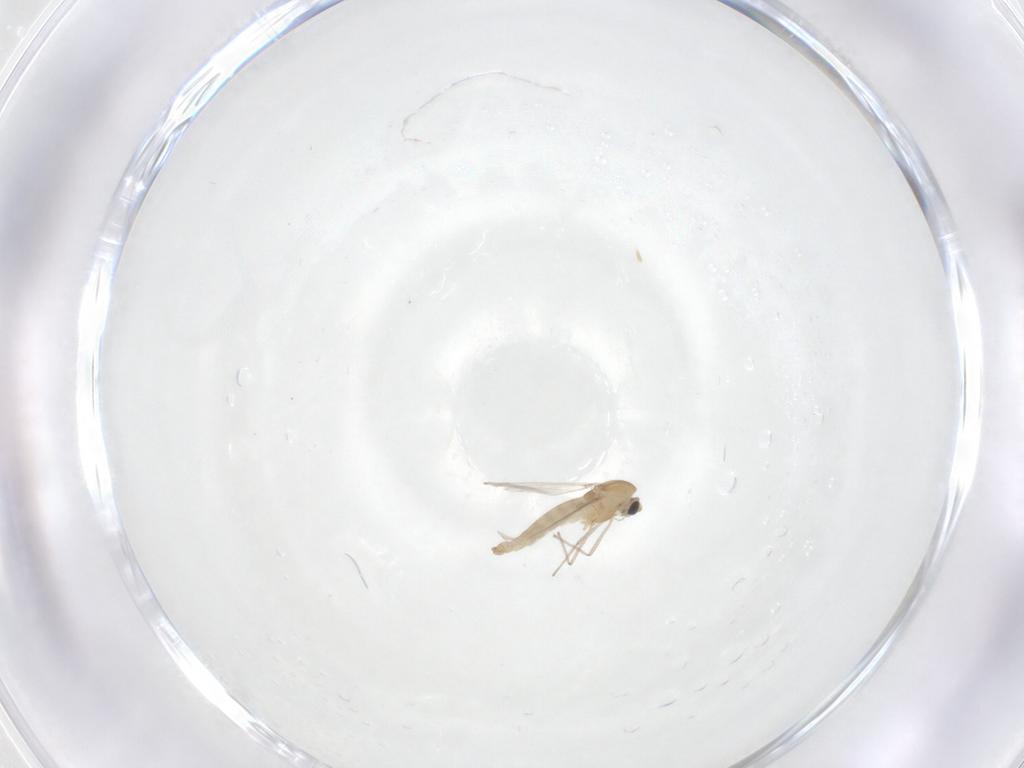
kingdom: Animalia
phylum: Arthropoda
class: Insecta
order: Diptera
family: Chironomidae
